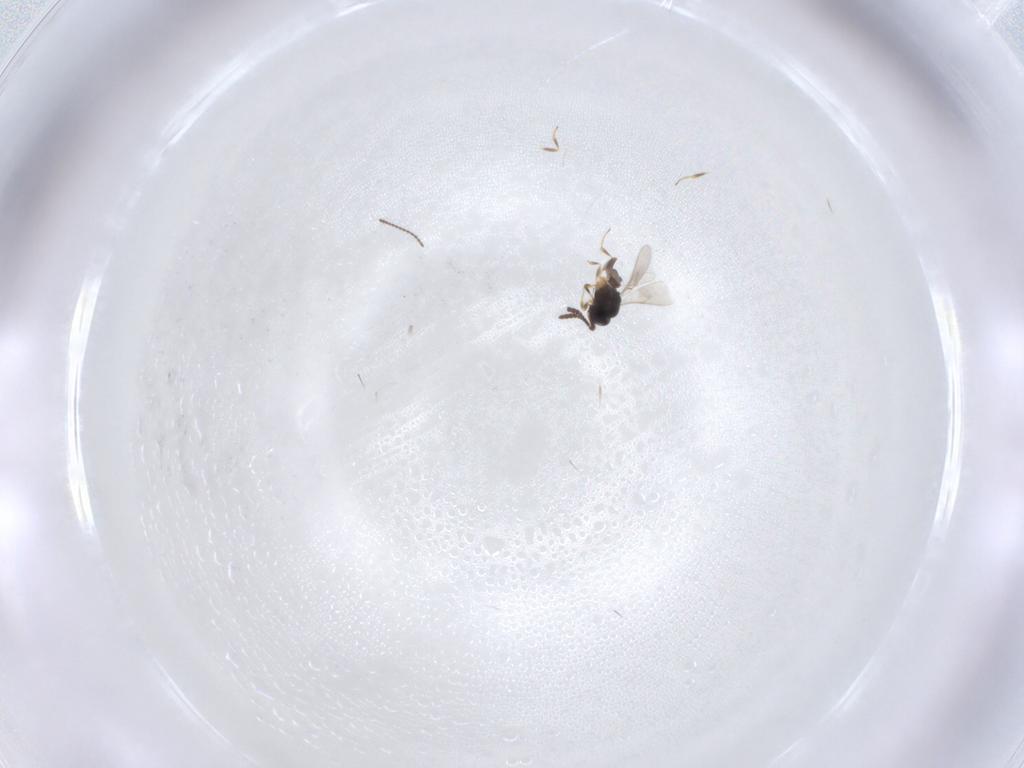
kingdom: Animalia
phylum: Arthropoda
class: Insecta
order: Hymenoptera
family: Scelionidae
